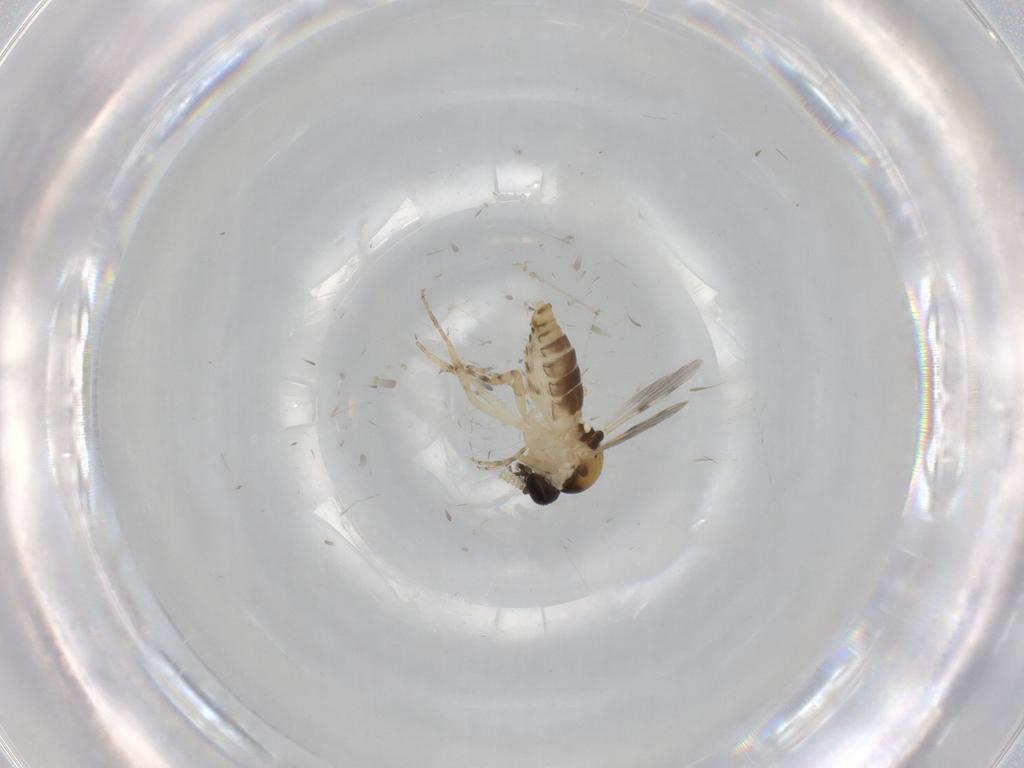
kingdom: Animalia
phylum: Arthropoda
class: Insecta
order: Diptera
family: Ceratopogonidae
